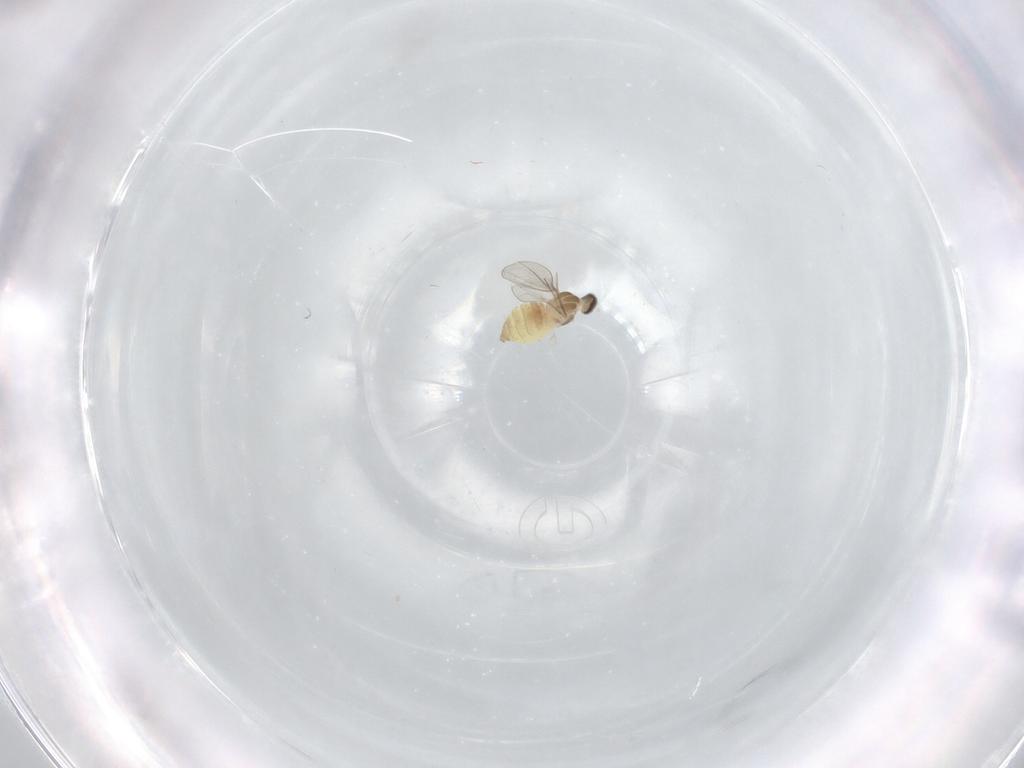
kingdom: Animalia
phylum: Arthropoda
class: Insecta
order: Diptera
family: Cecidomyiidae
